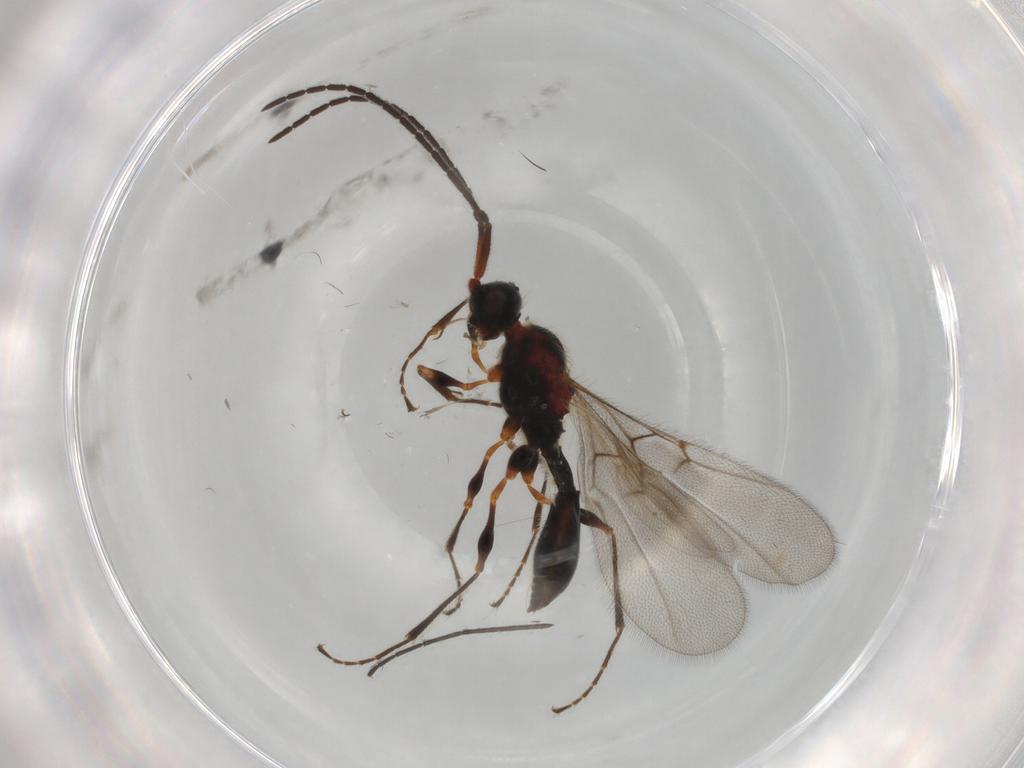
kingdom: Animalia
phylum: Arthropoda
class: Insecta
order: Hymenoptera
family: Diapriidae
